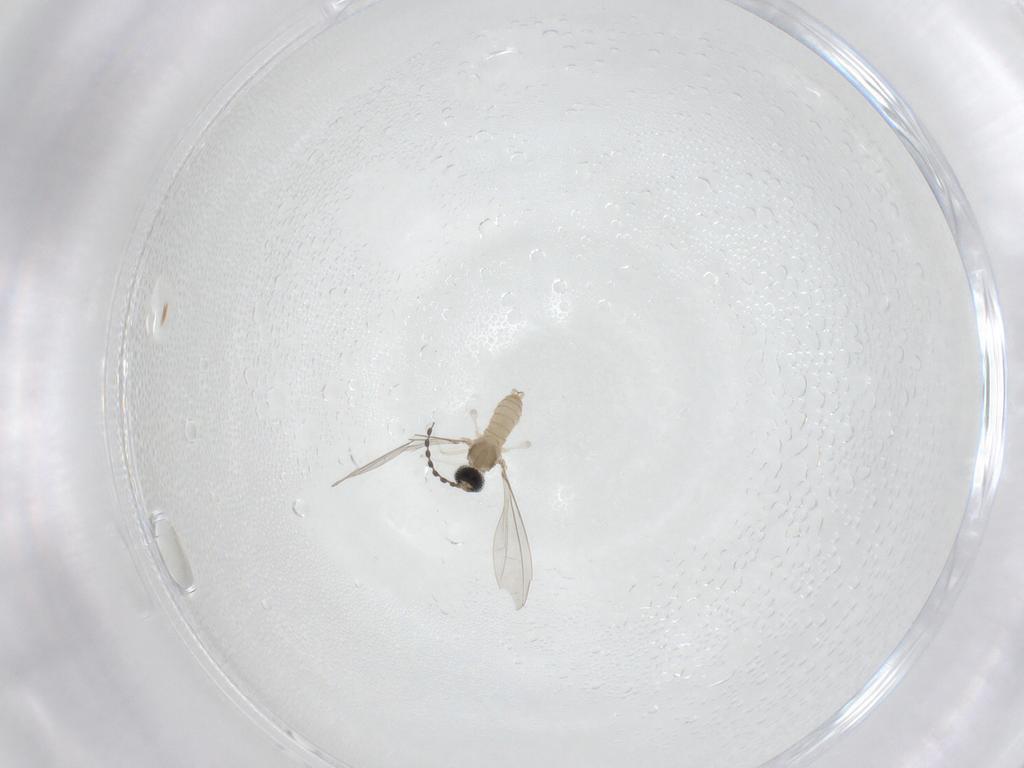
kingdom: Animalia
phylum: Arthropoda
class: Insecta
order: Diptera
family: Cecidomyiidae
